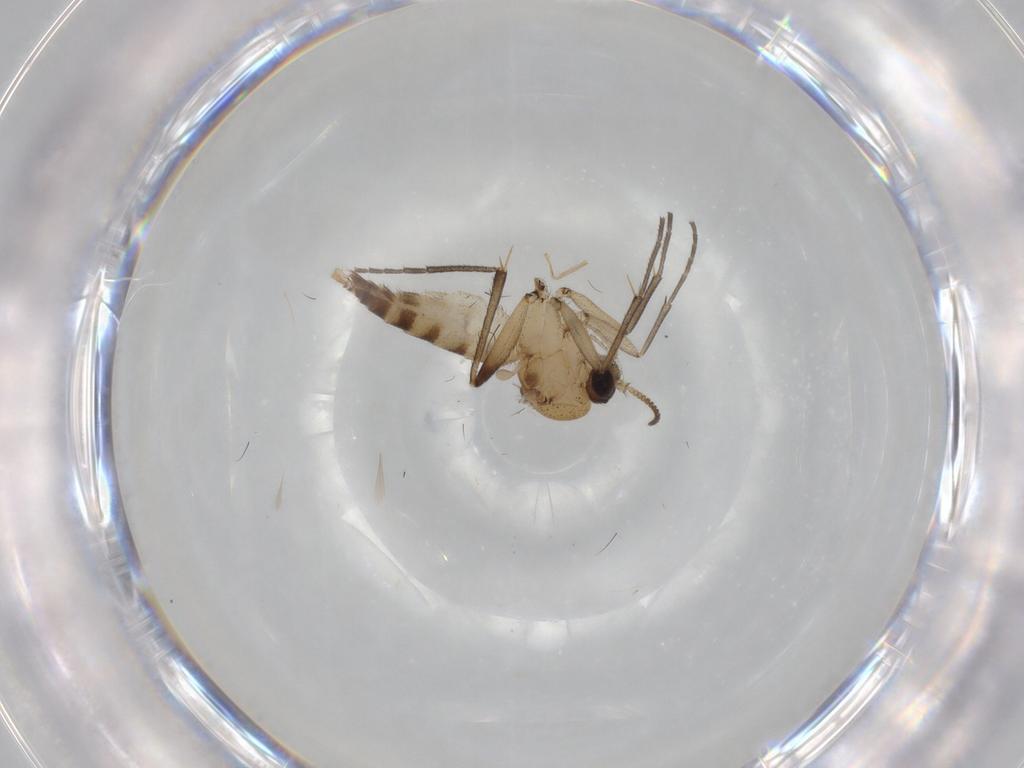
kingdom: Animalia
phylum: Arthropoda
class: Insecta
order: Diptera
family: Mycetophilidae
